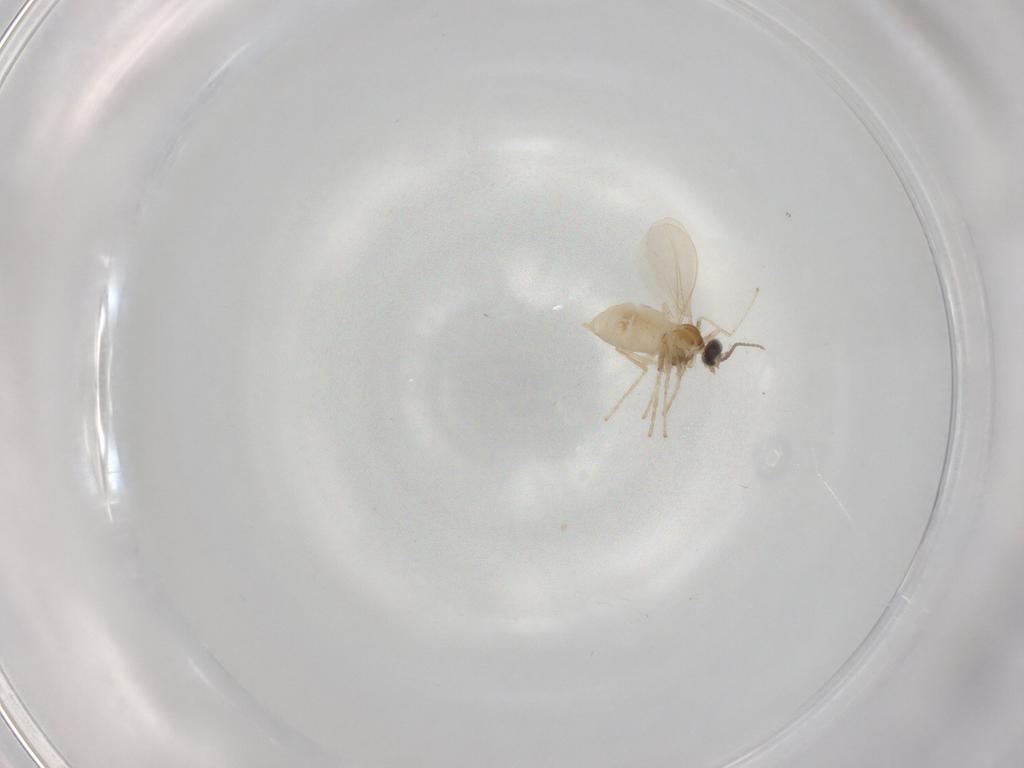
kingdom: Animalia
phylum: Arthropoda
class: Insecta
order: Diptera
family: Cecidomyiidae
